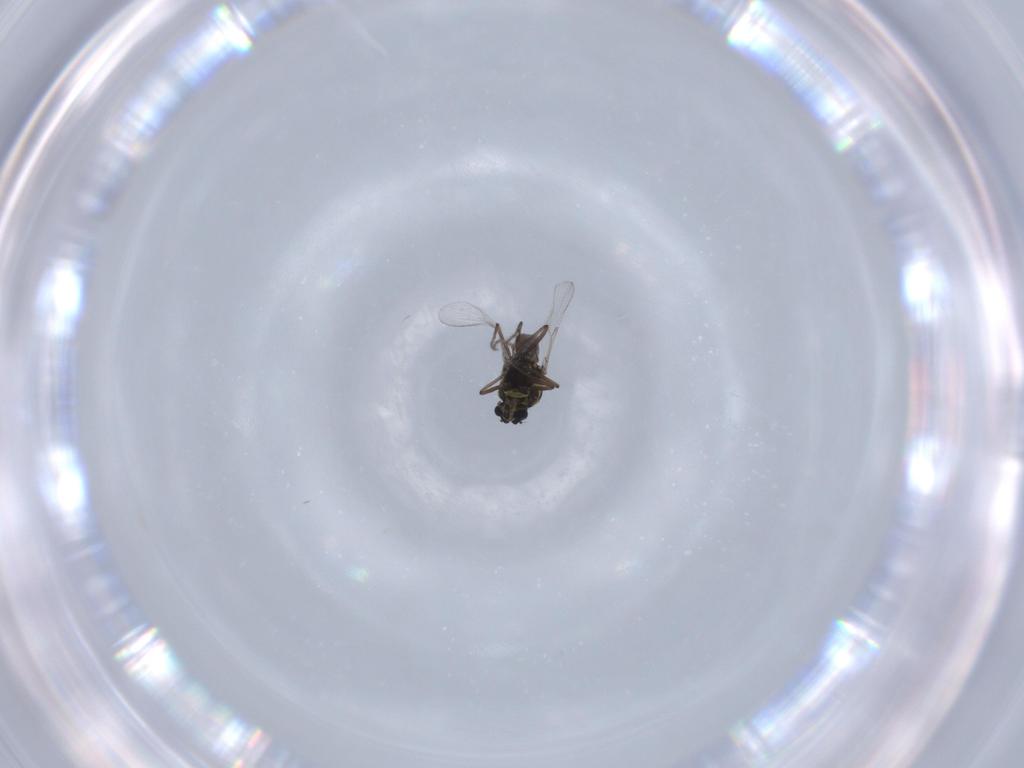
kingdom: Animalia
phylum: Arthropoda
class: Insecta
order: Diptera
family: Ceratopogonidae
